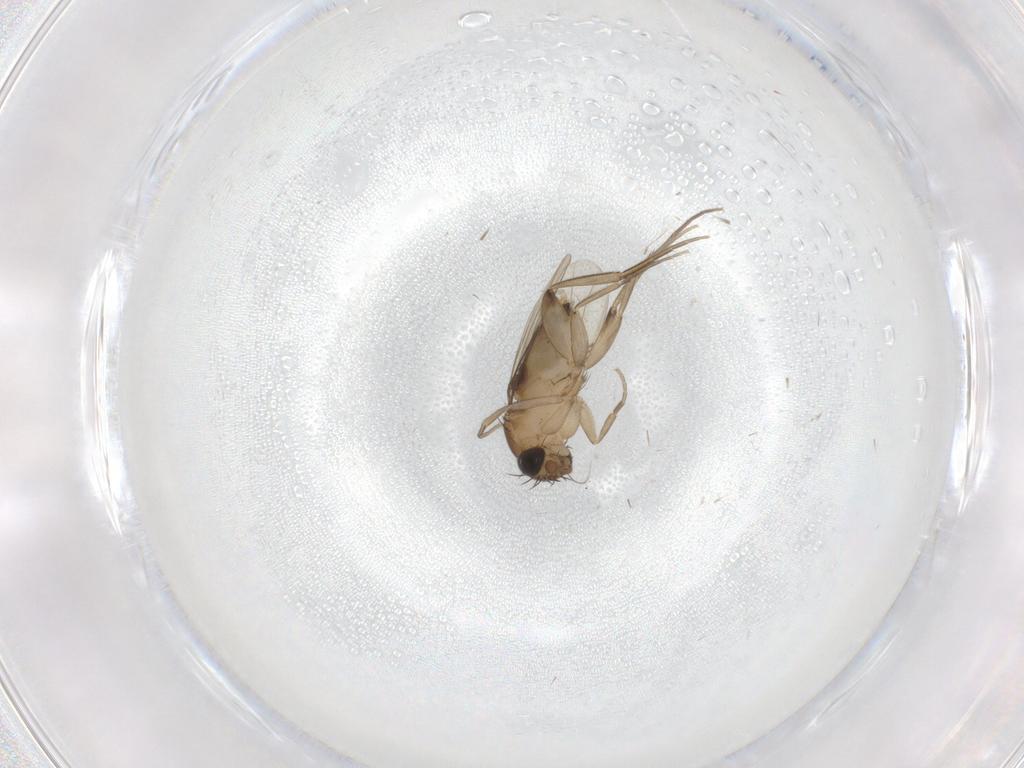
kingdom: Animalia
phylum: Arthropoda
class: Insecta
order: Diptera
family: Phoridae
